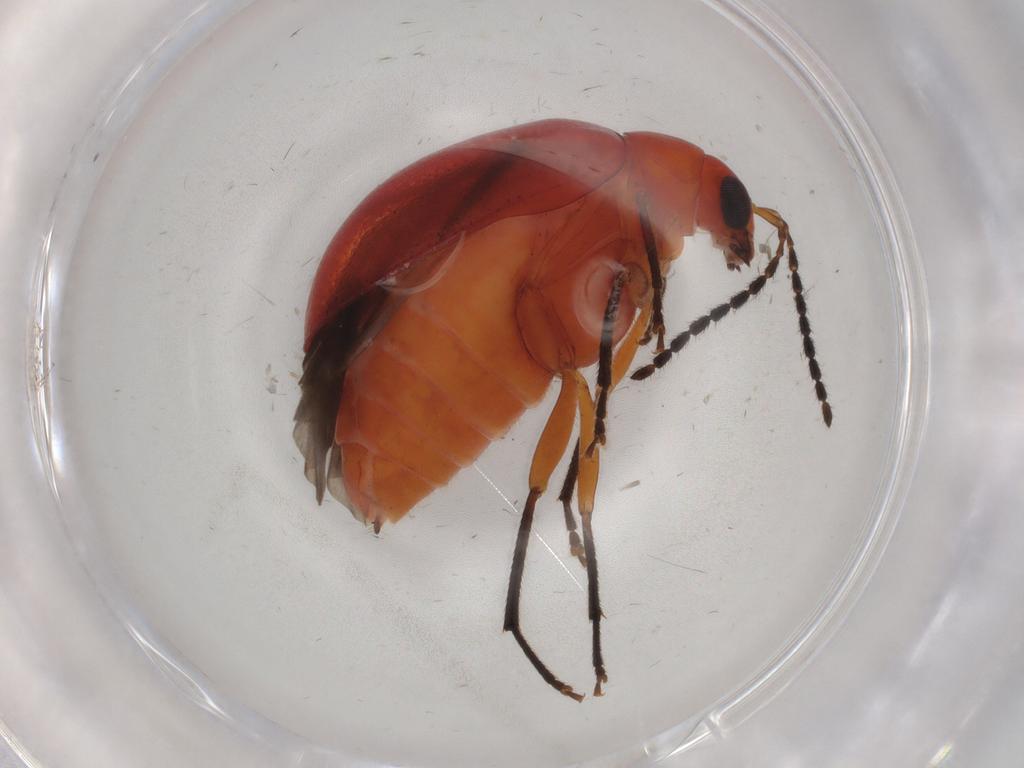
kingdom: Animalia
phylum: Arthropoda
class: Insecta
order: Coleoptera
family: Chrysomelidae
